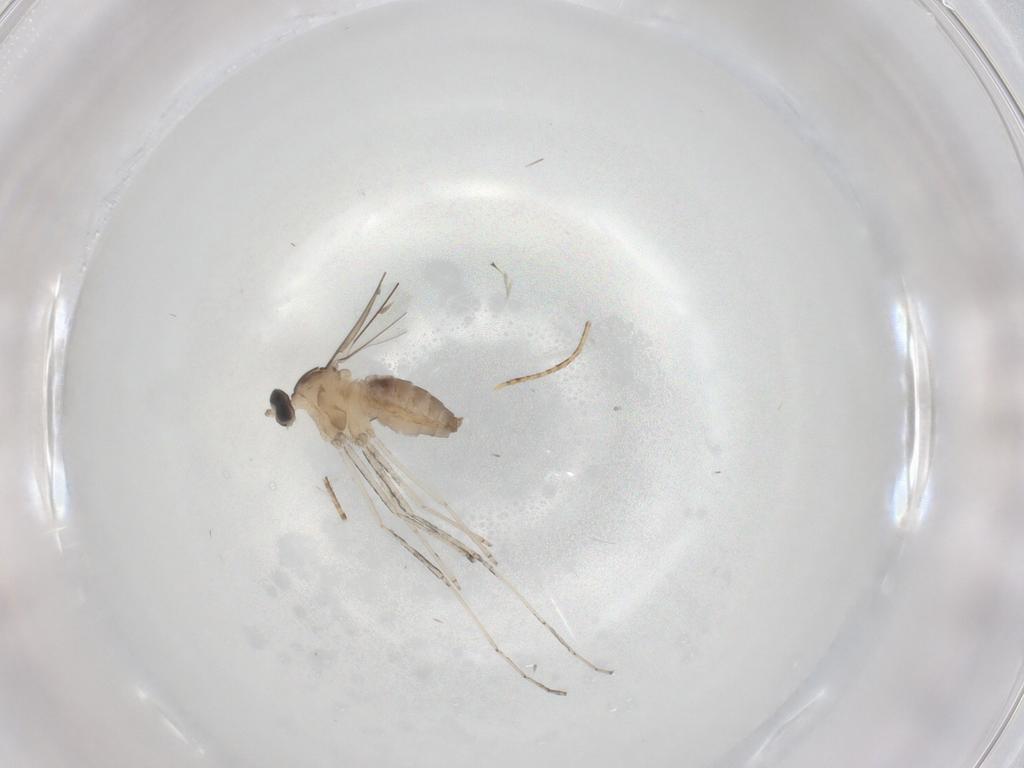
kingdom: Animalia
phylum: Arthropoda
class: Insecta
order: Diptera
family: Cecidomyiidae
